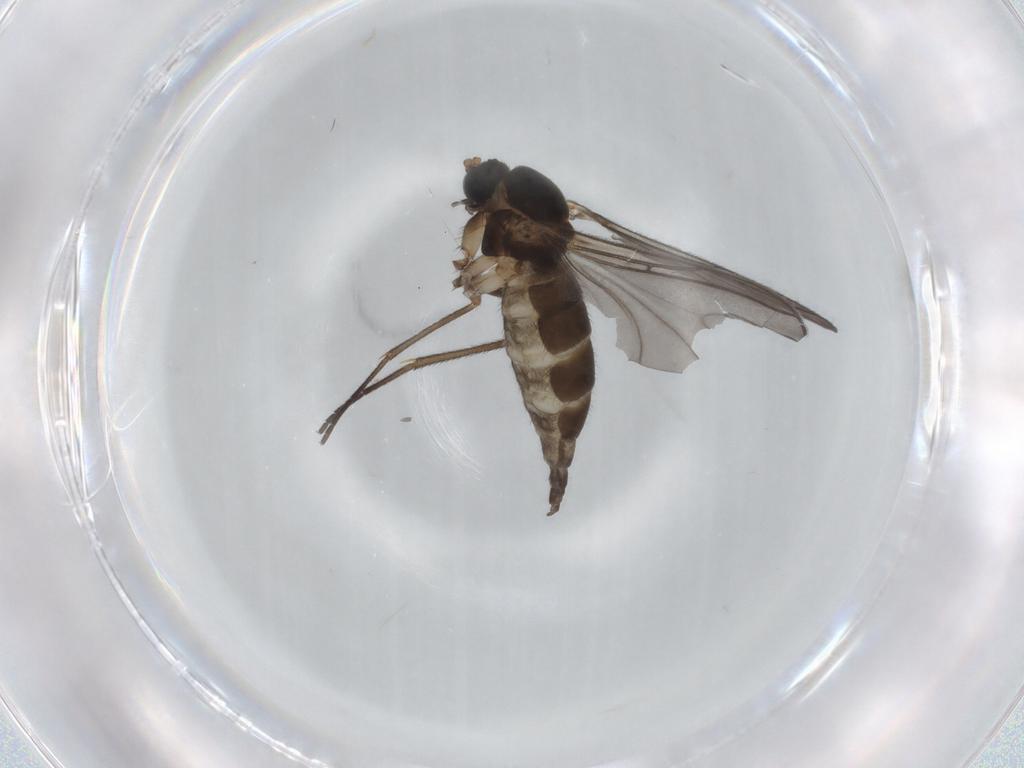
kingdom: Animalia
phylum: Arthropoda
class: Insecta
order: Diptera
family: Sciaridae
